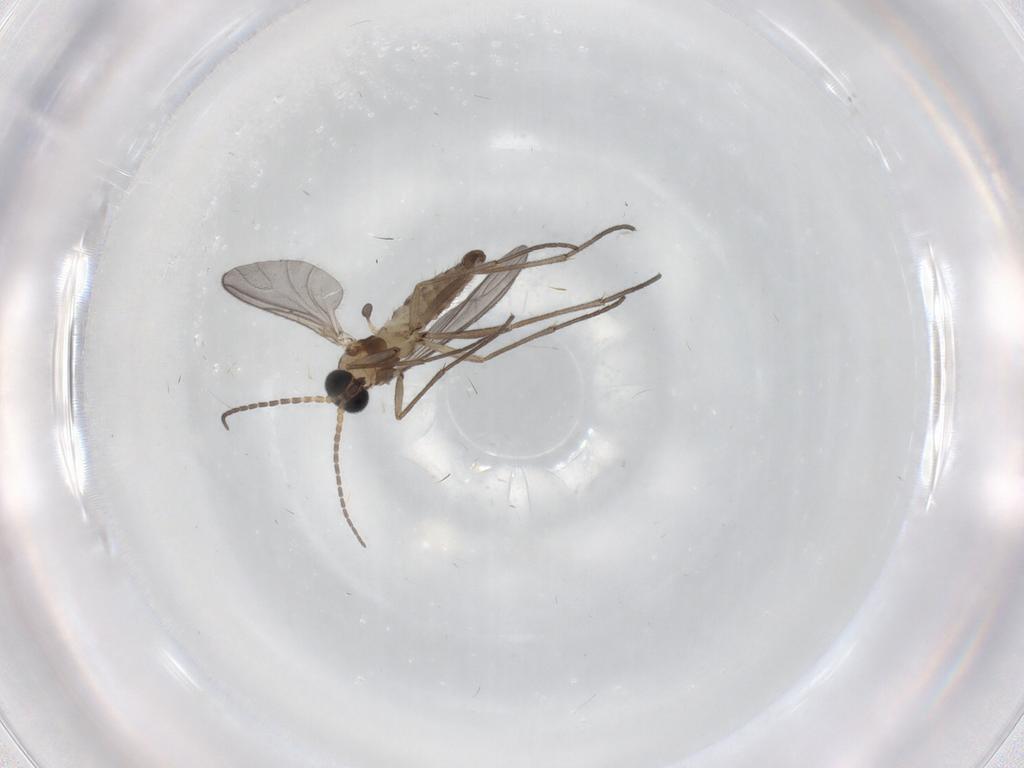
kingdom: Animalia
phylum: Arthropoda
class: Insecta
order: Diptera
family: Sciaridae
